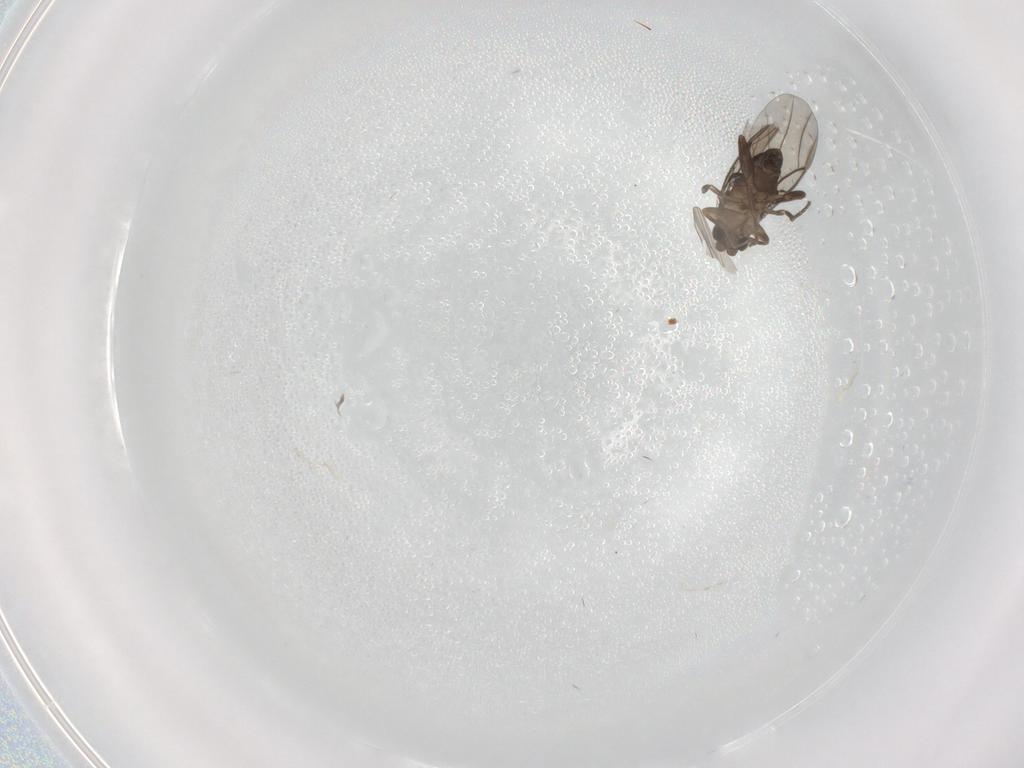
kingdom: Animalia
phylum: Arthropoda
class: Insecta
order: Diptera
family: Phoridae
